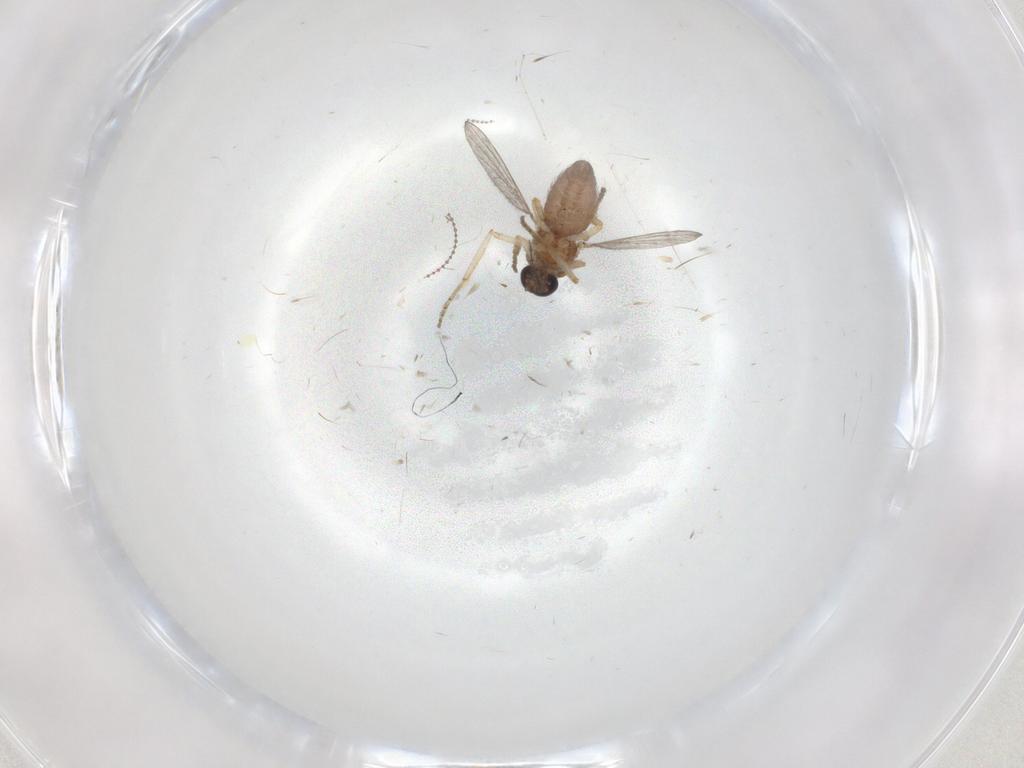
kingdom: Animalia
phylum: Arthropoda
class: Insecta
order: Diptera
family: Ceratopogonidae
